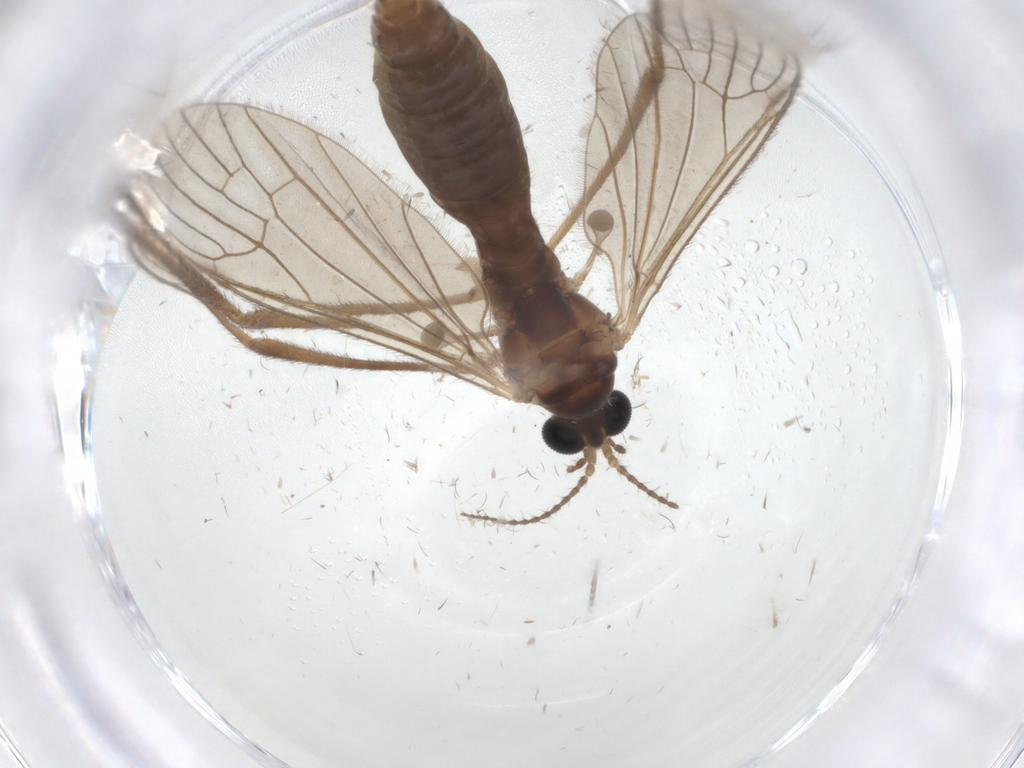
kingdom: Animalia
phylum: Arthropoda
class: Insecta
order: Diptera
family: Limoniidae
